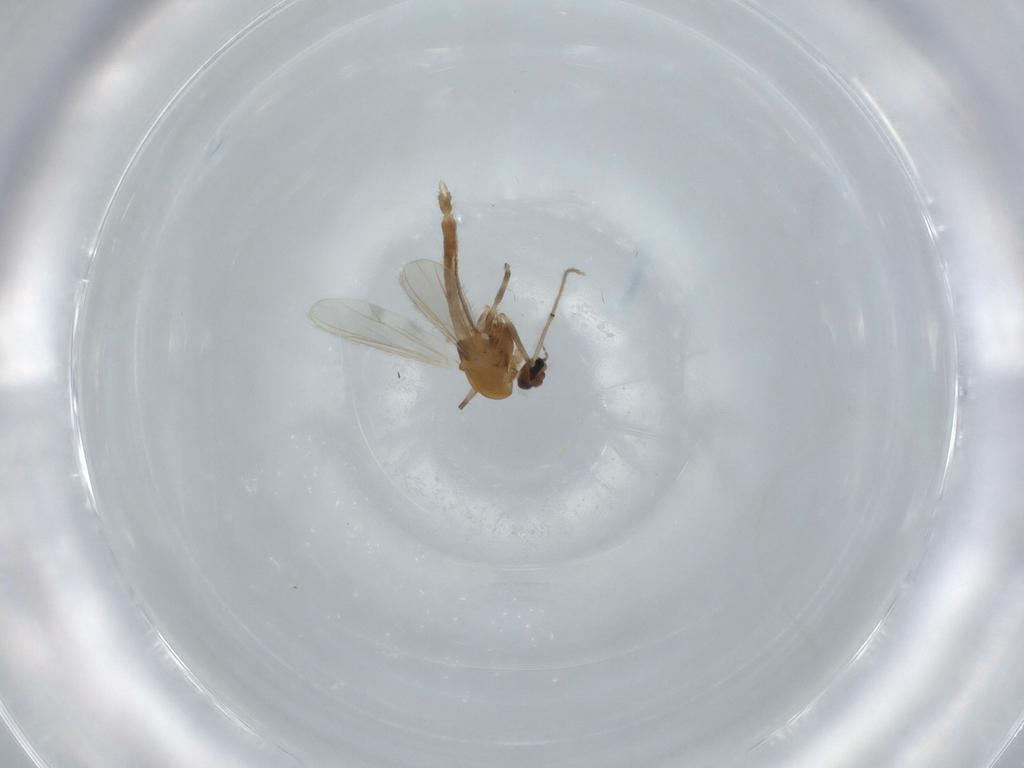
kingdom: Animalia
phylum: Arthropoda
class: Insecta
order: Diptera
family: Chironomidae
